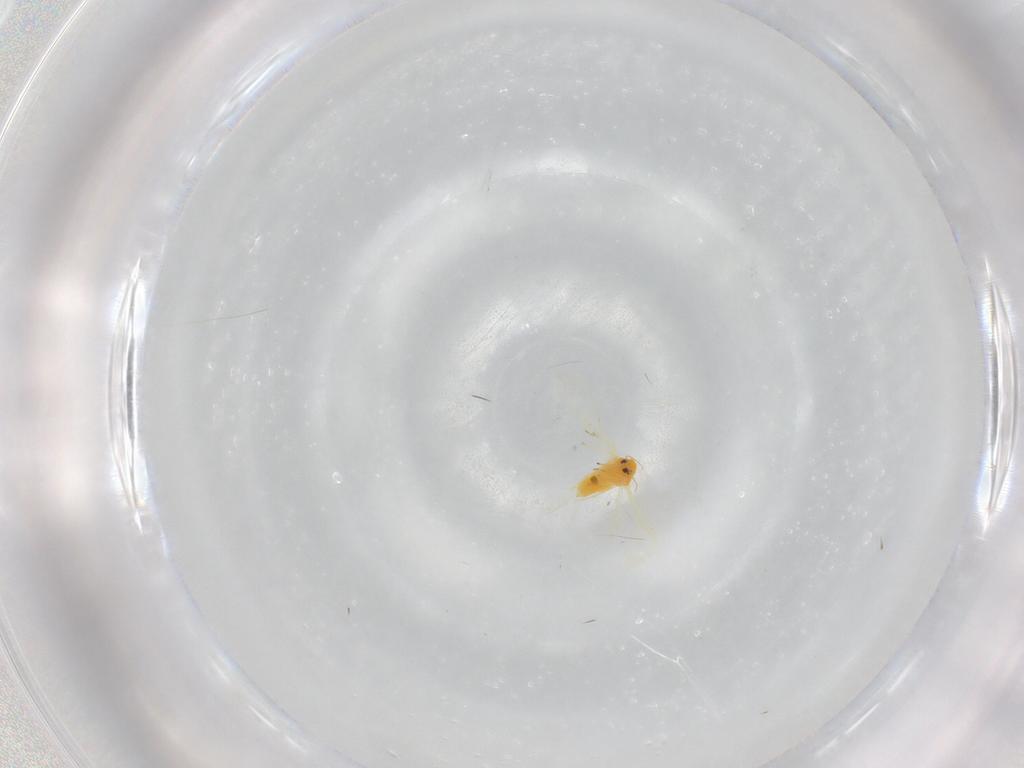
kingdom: Animalia
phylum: Arthropoda
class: Insecta
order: Hemiptera
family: Aleyrodidae
